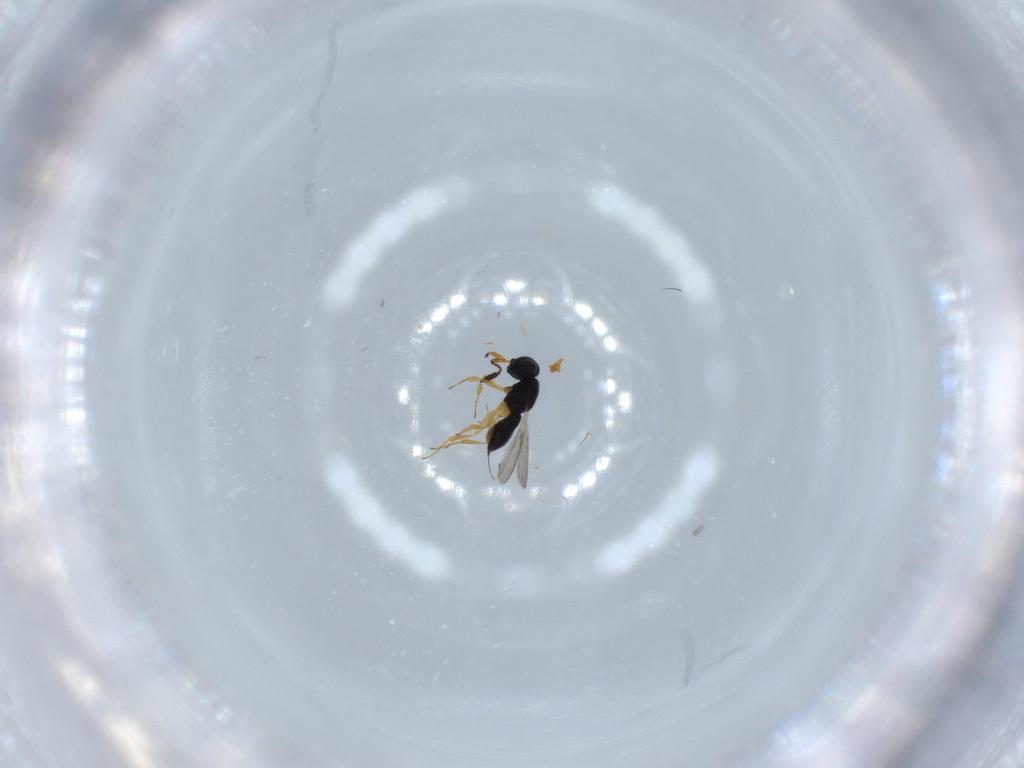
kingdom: Animalia
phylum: Arthropoda
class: Insecta
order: Hymenoptera
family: Scelionidae
